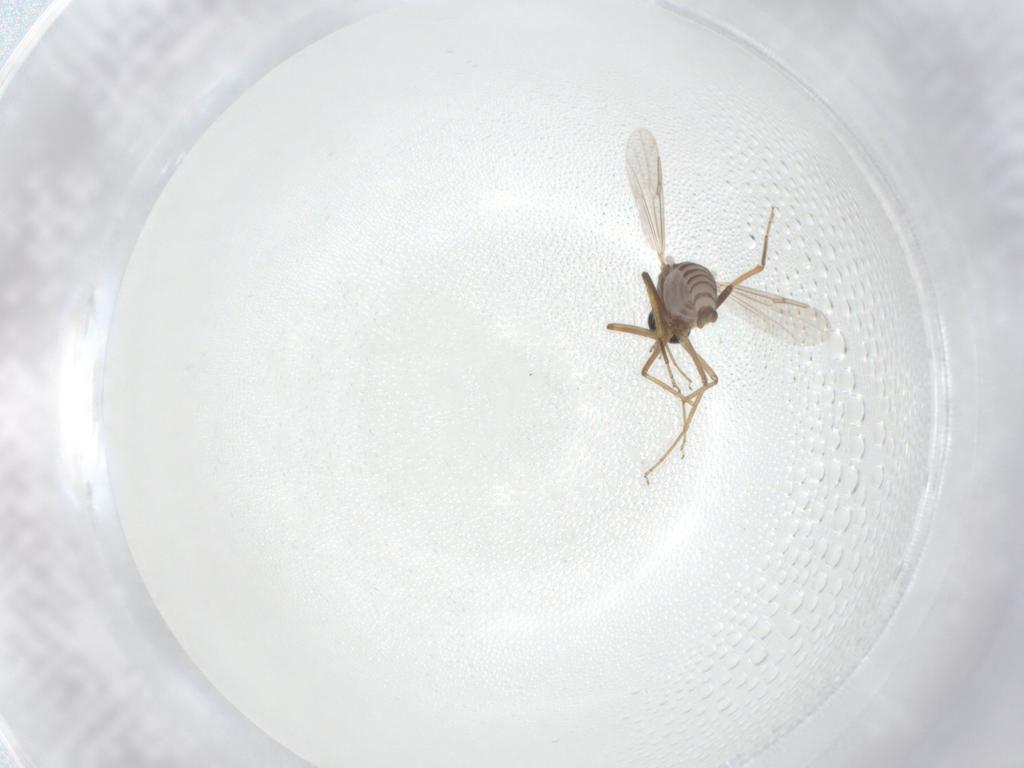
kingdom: Animalia
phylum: Arthropoda
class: Insecta
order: Diptera
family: Ceratopogonidae
